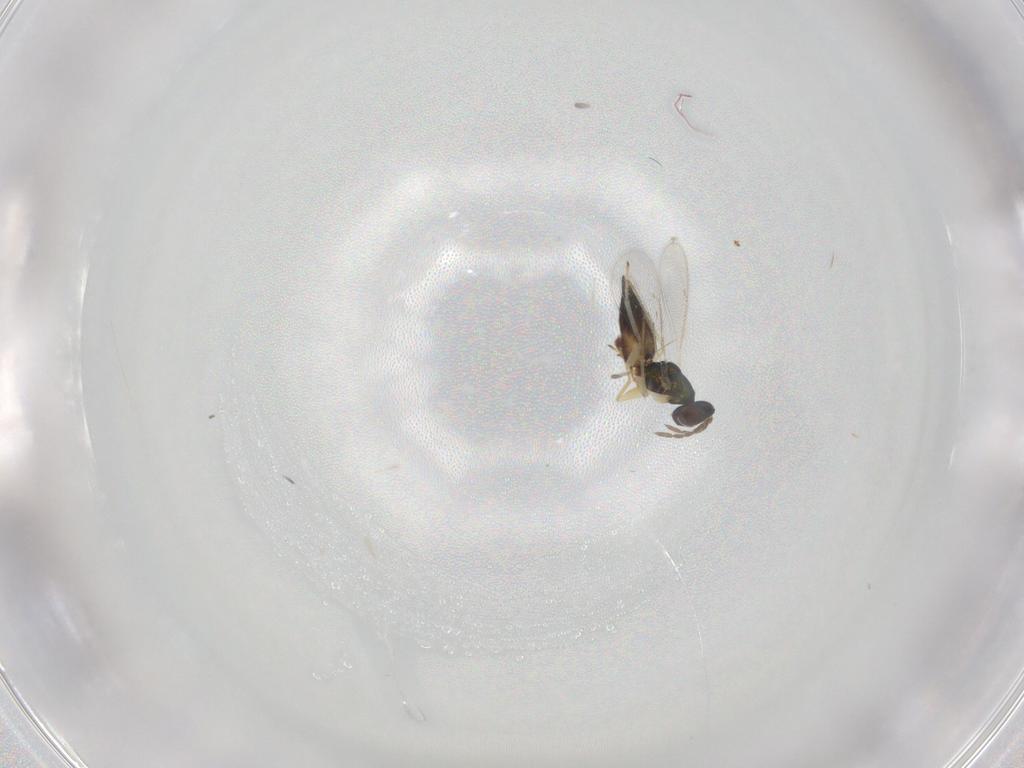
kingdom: Animalia
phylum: Arthropoda
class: Insecta
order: Hymenoptera
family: Eulophidae
